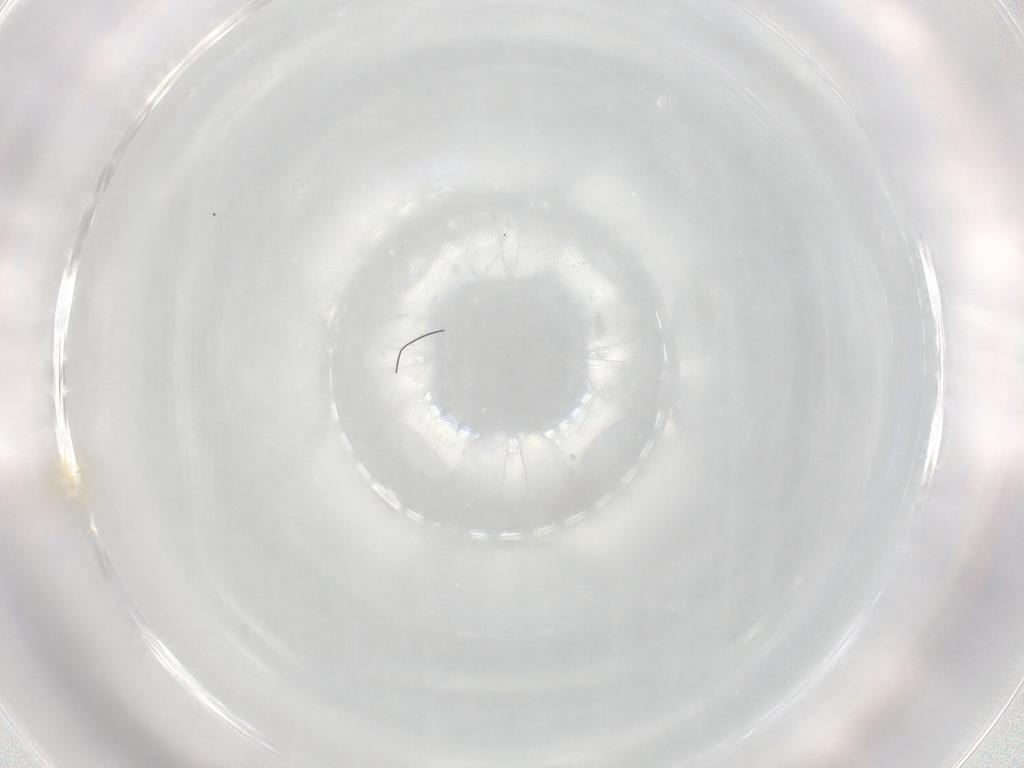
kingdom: Animalia
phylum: Arthropoda
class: Arachnida
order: Trombidiformes
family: Rhagidiidae
